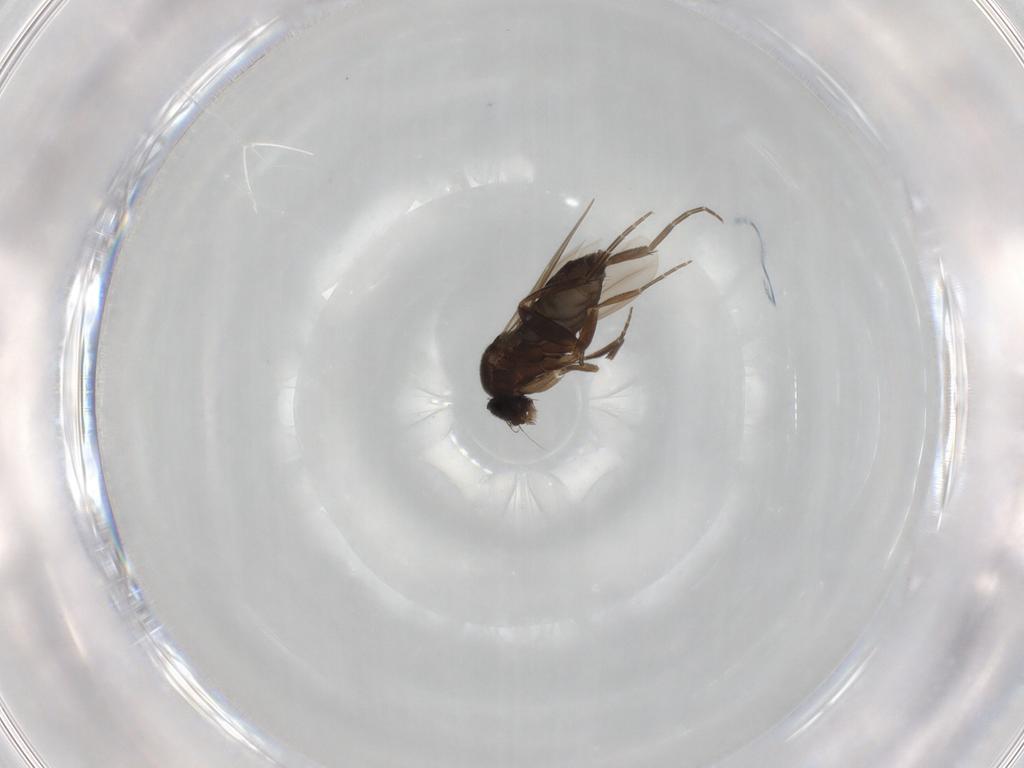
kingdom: Animalia
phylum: Arthropoda
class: Insecta
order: Diptera
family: Phoridae
